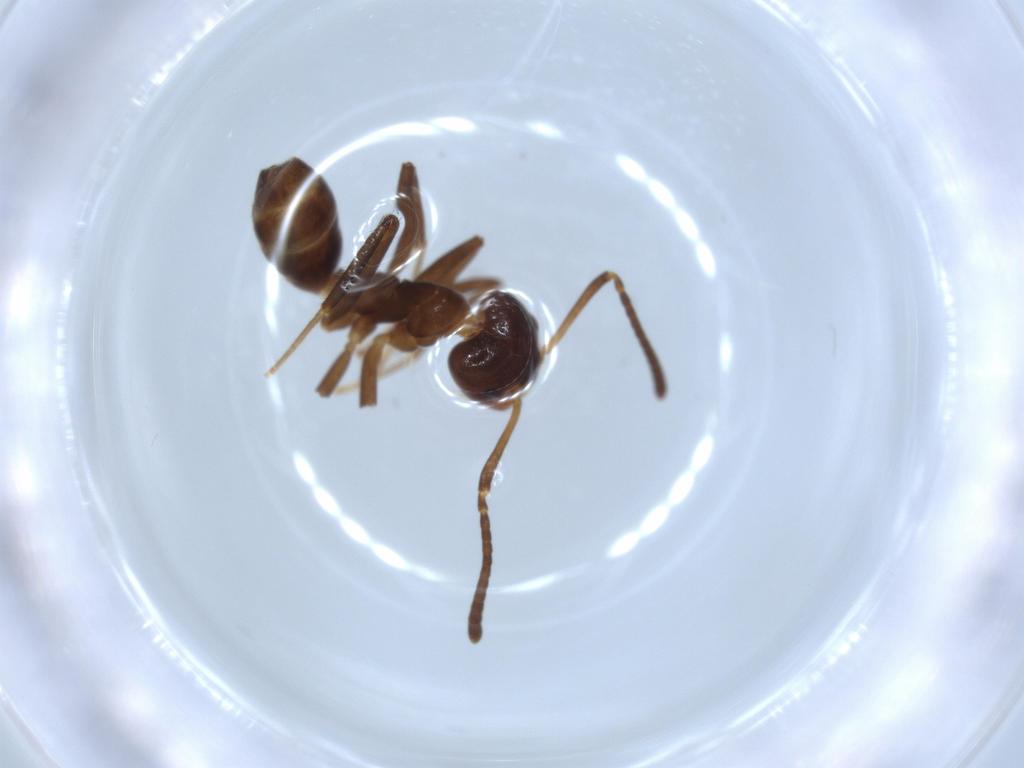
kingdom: Animalia
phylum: Arthropoda
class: Insecta
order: Hymenoptera
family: Formicidae
